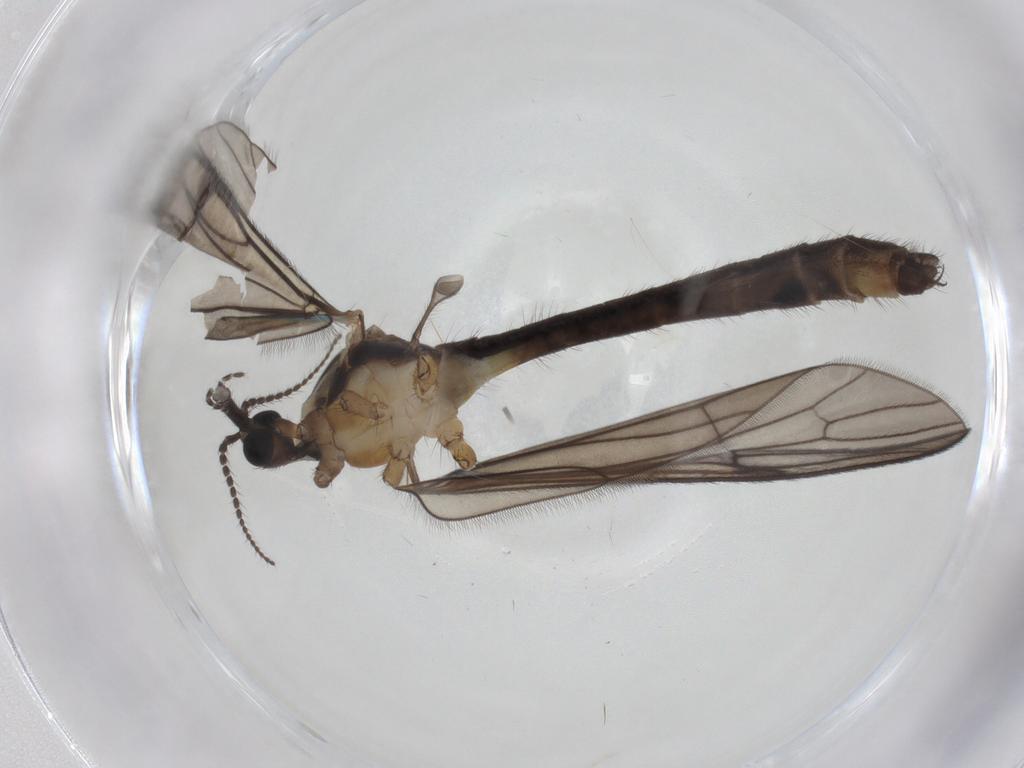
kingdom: Animalia
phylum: Arthropoda
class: Insecta
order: Diptera
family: Limoniidae
